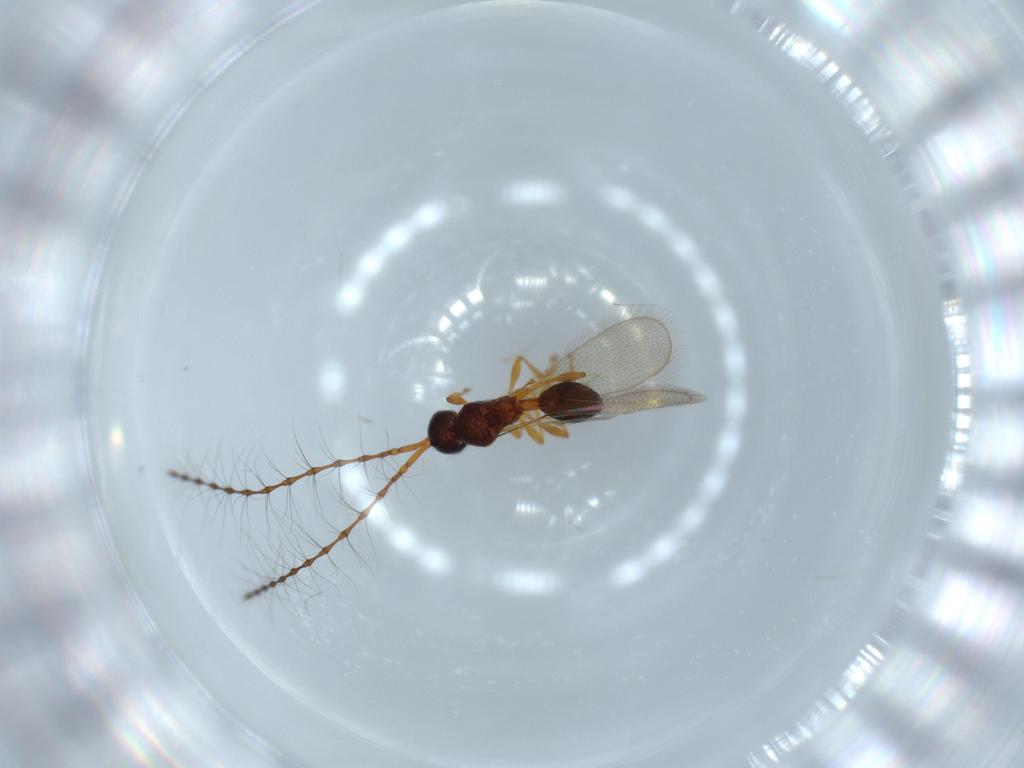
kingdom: Animalia
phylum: Arthropoda
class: Insecta
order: Hymenoptera
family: Diapriidae
